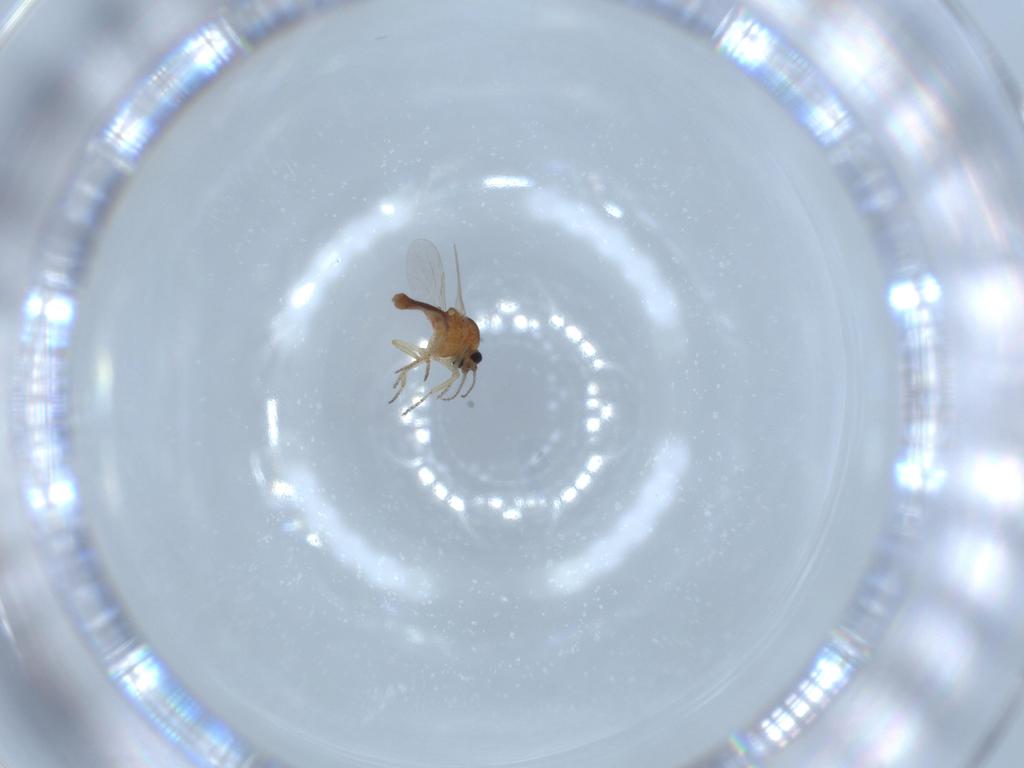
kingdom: Animalia
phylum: Arthropoda
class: Insecta
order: Diptera
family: Ceratopogonidae
